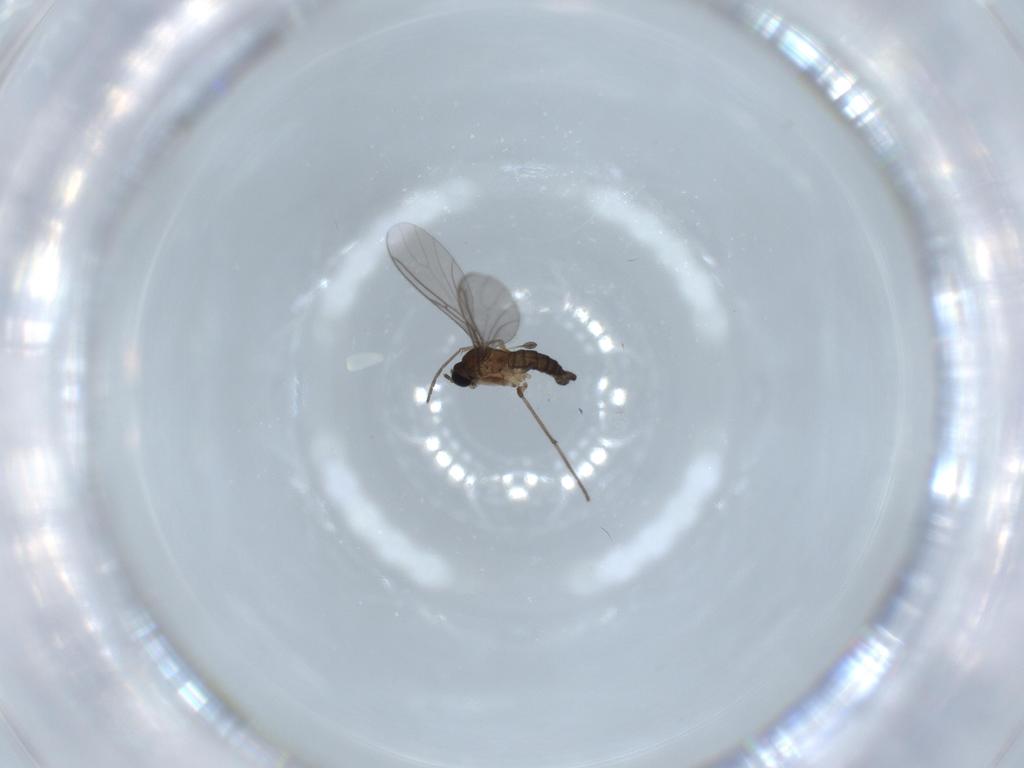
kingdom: Animalia
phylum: Arthropoda
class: Insecta
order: Diptera
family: Sciaridae
